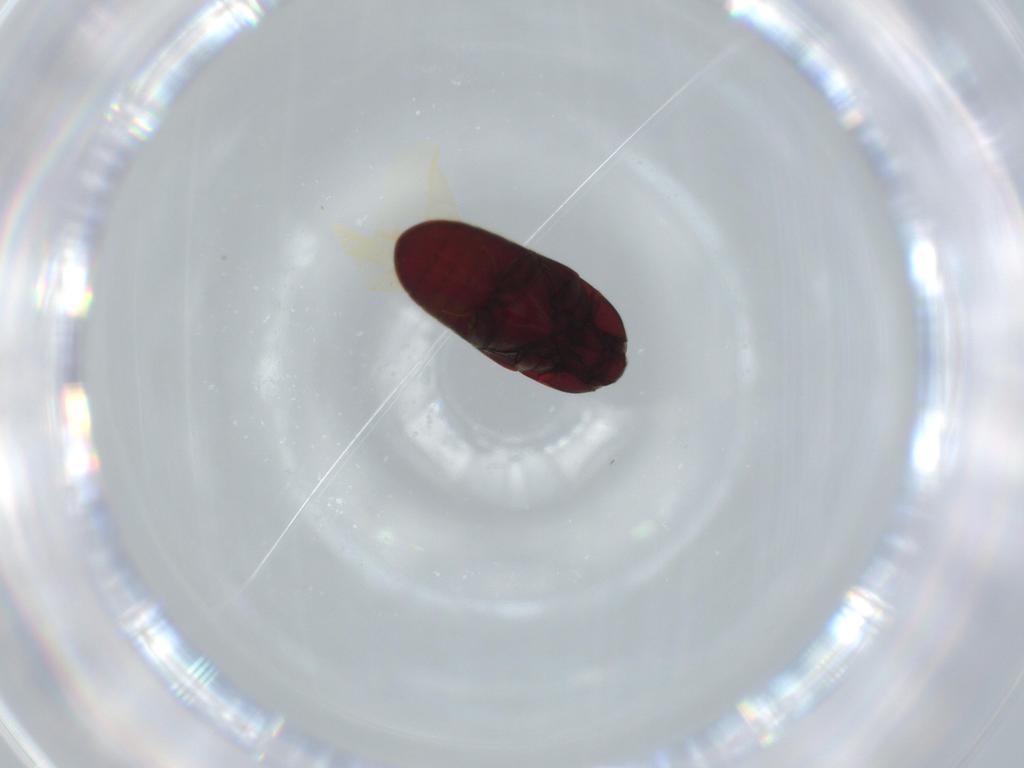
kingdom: Animalia
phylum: Arthropoda
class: Insecta
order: Coleoptera
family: Throscidae
